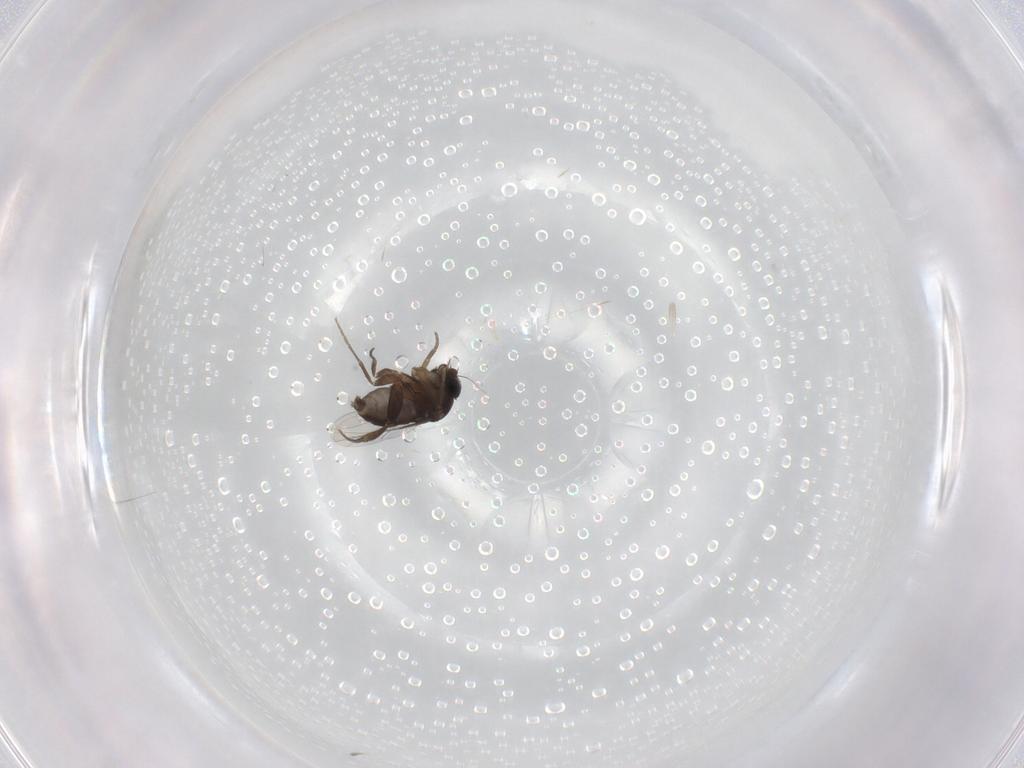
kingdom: Animalia
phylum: Arthropoda
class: Insecta
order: Diptera
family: Phoridae
